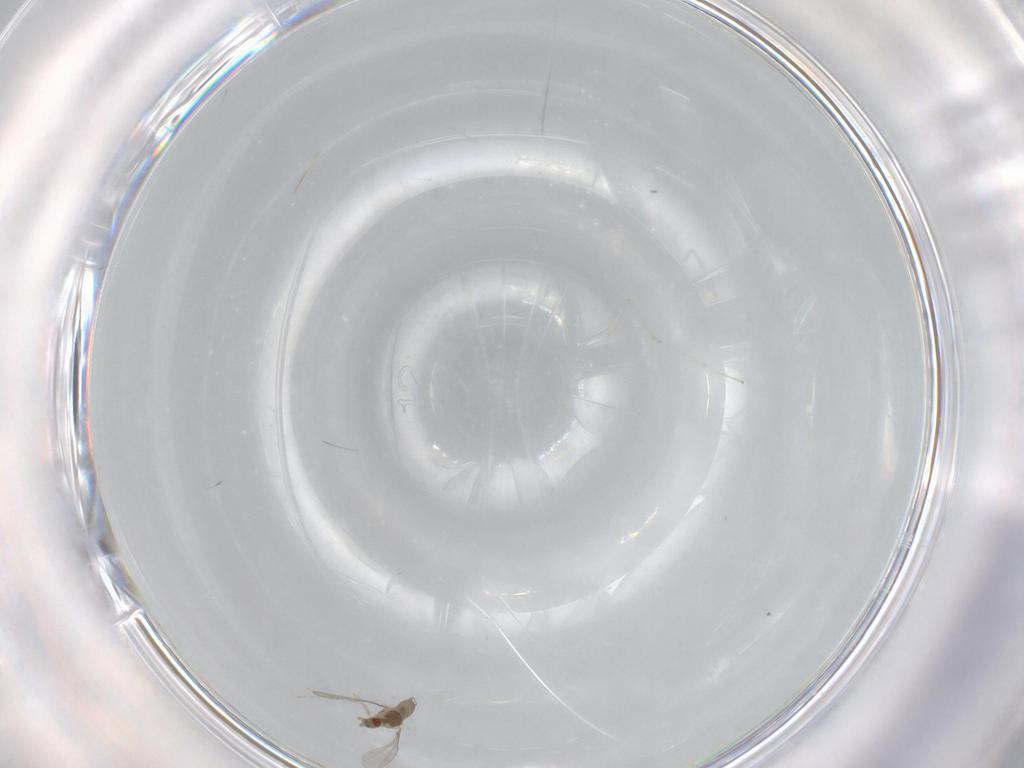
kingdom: Animalia
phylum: Arthropoda
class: Insecta
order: Diptera
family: Cecidomyiidae
